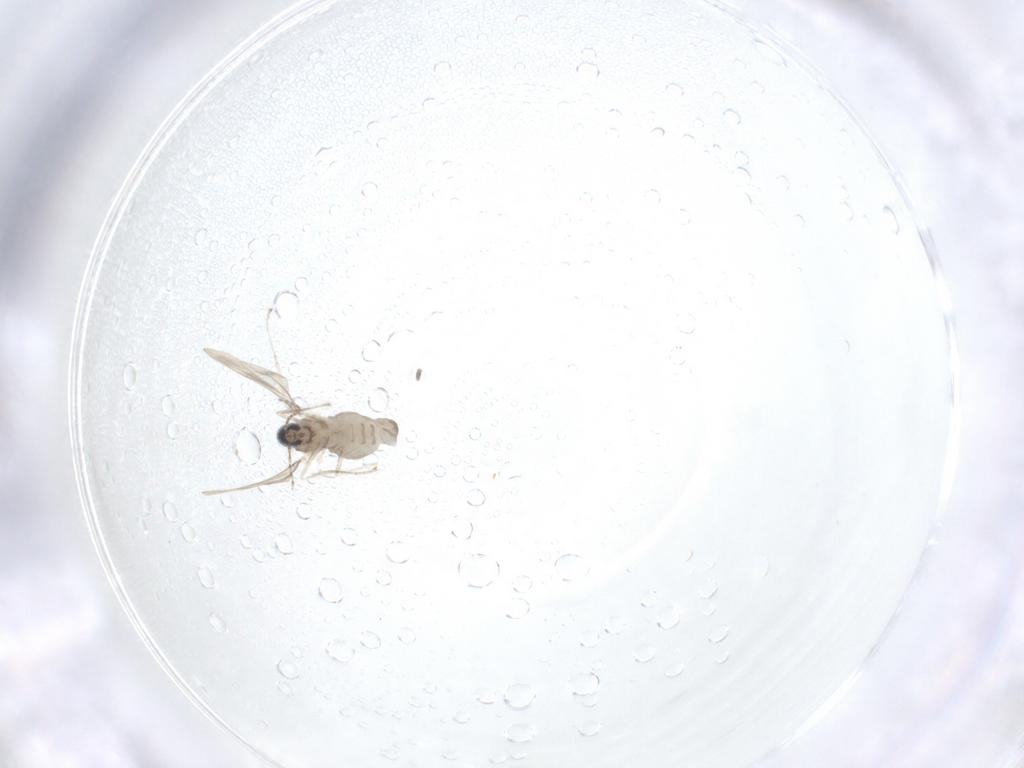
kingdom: Animalia
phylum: Arthropoda
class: Insecta
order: Diptera
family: Cecidomyiidae
